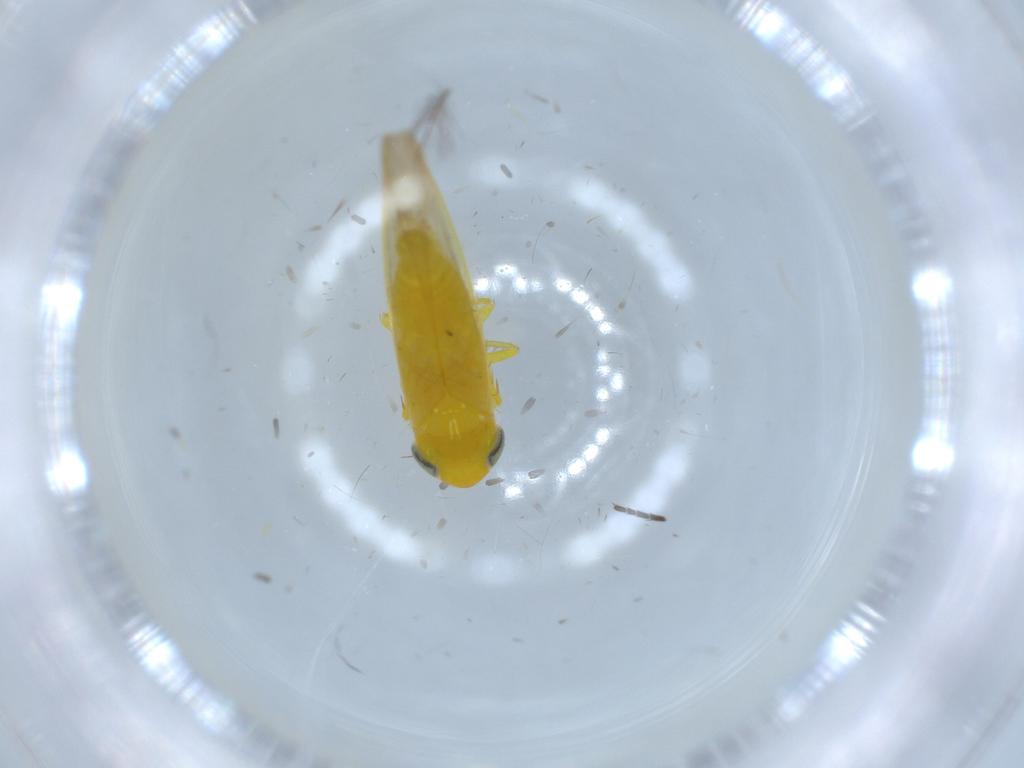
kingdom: Animalia
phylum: Arthropoda
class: Insecta
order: Hemiptera
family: Cicadellidae
